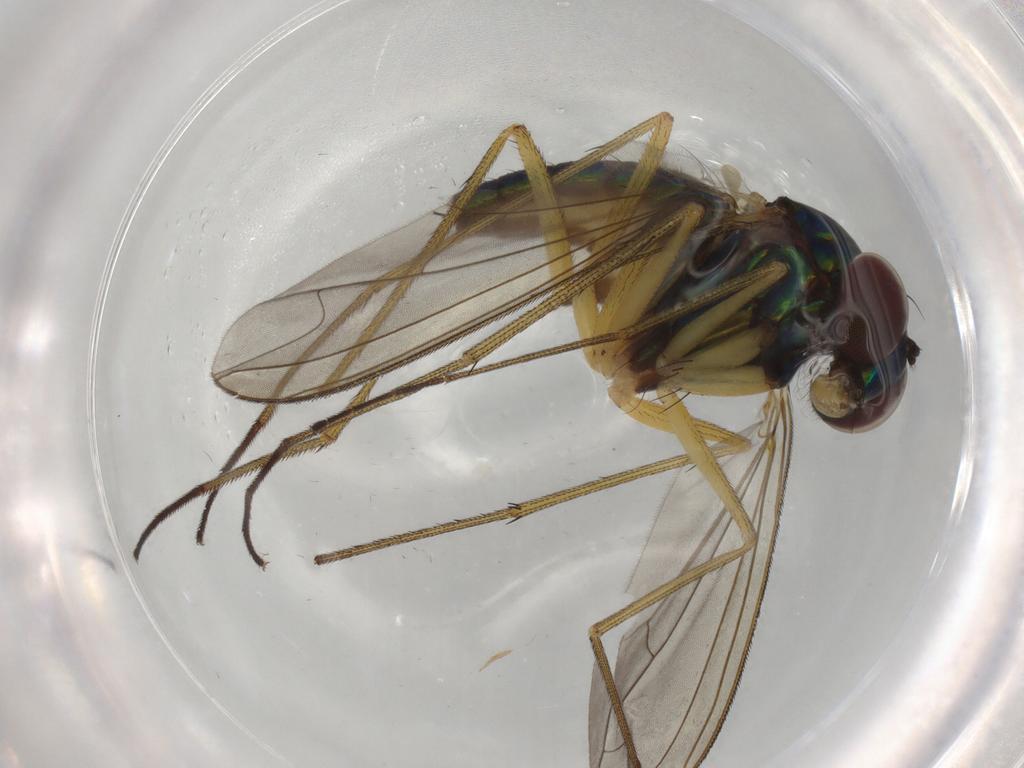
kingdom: Animalia
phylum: Arthropoda
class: Insecta
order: Diptera
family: Dolichopodidae
